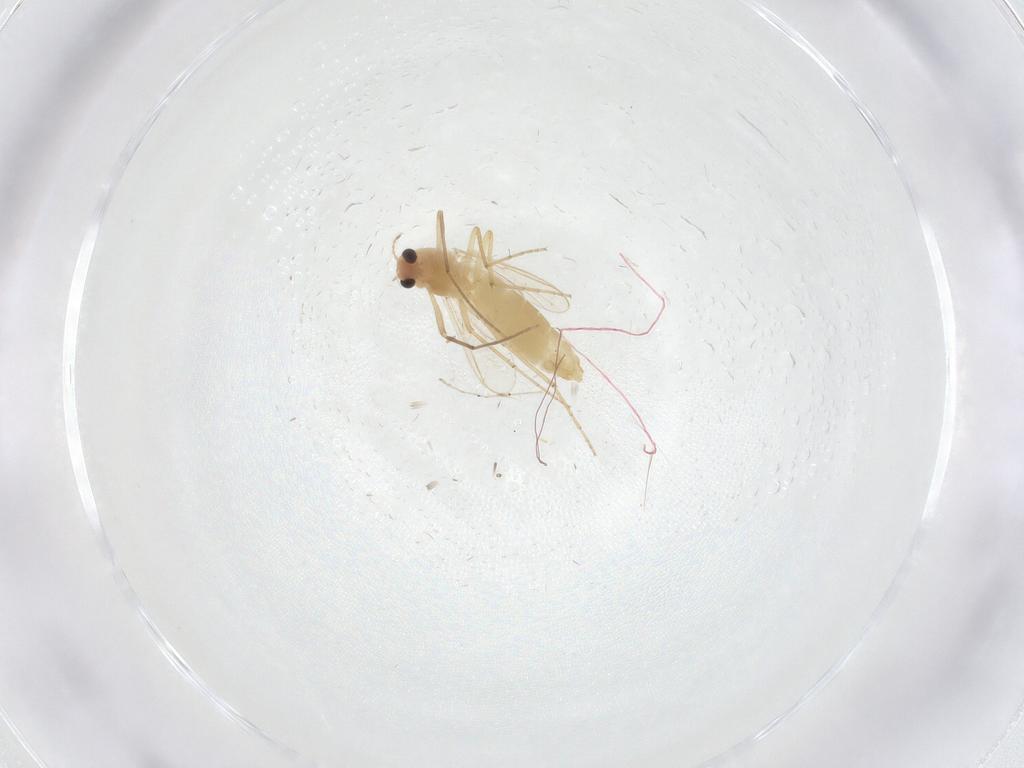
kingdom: Animalia
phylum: Arthropoda
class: Insecta
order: Diptera
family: Chironomidae
